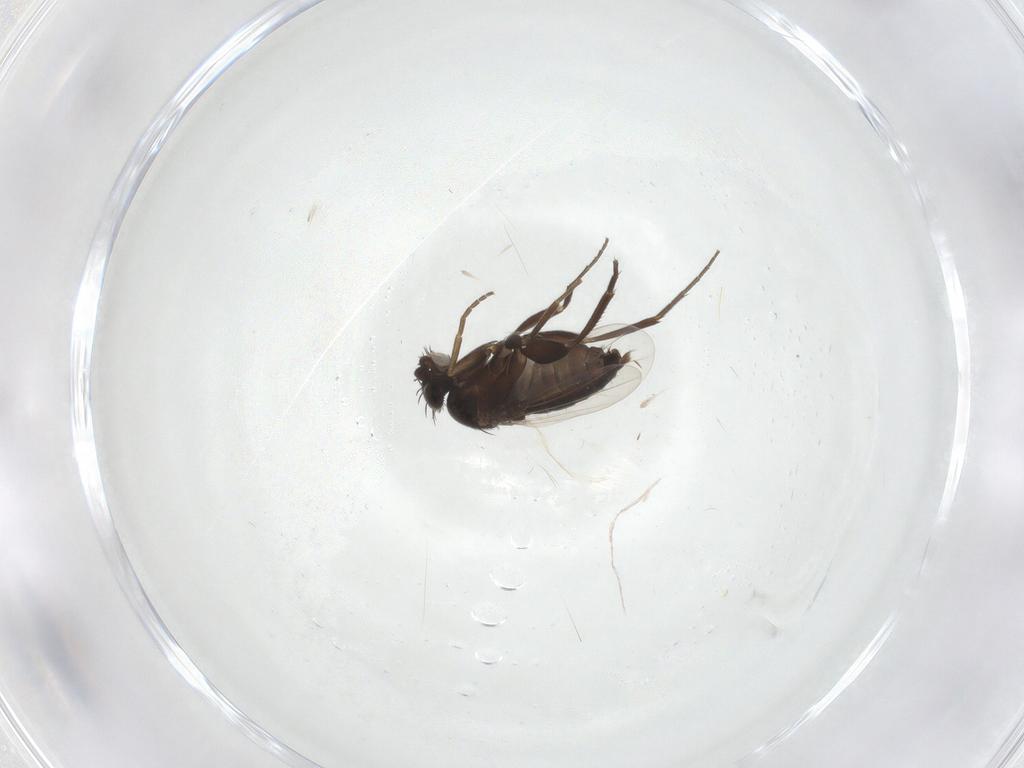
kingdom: Animalia
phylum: Arthropoda
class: Insecta
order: Diptera
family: Phoridae
